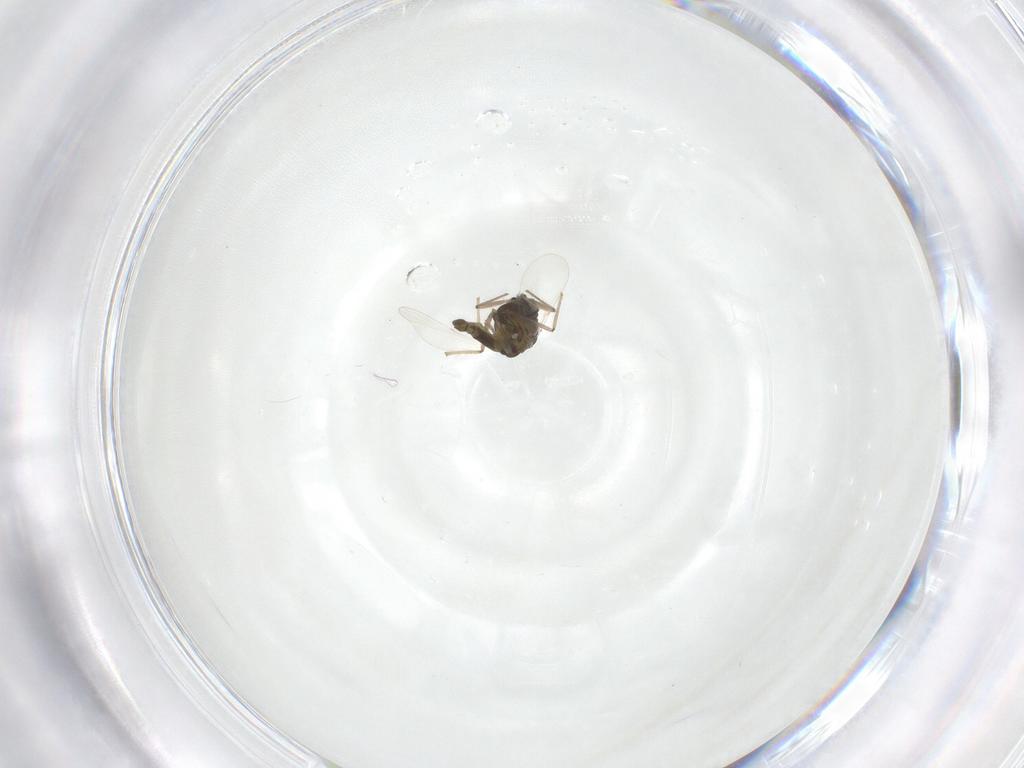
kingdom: Animalia
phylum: Arthropoda
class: Insecta
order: Diptera
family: Chironomidae
